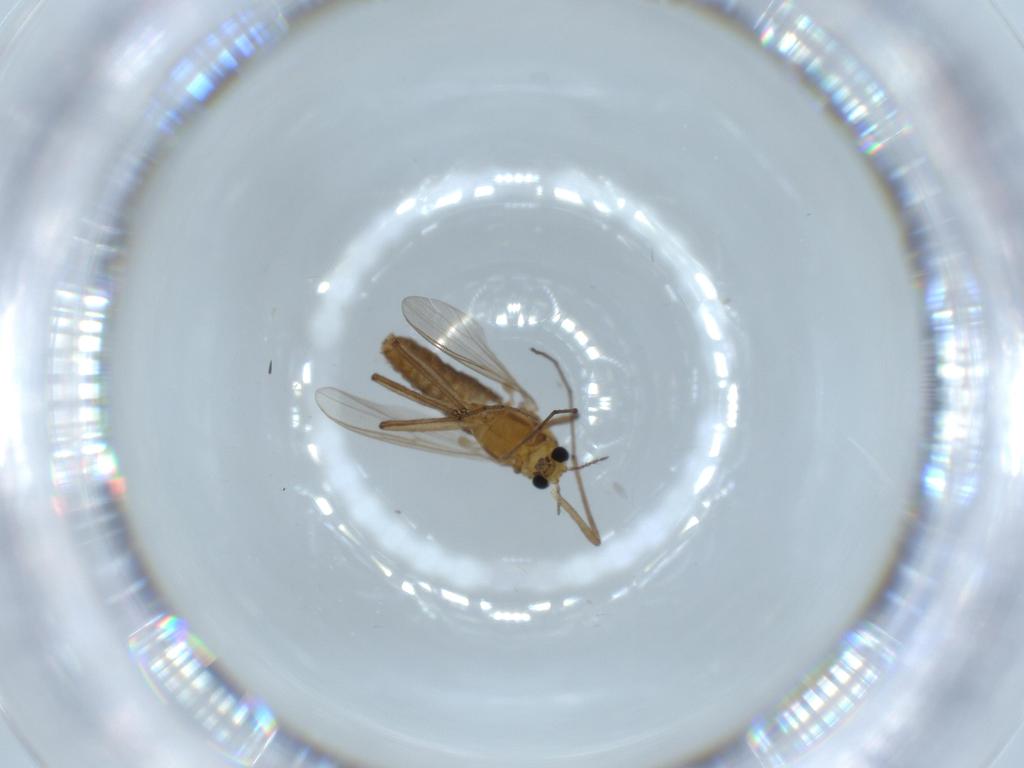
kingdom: Animalia
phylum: Arthropoda
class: Insecta
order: Diptera
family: Chironomidae
